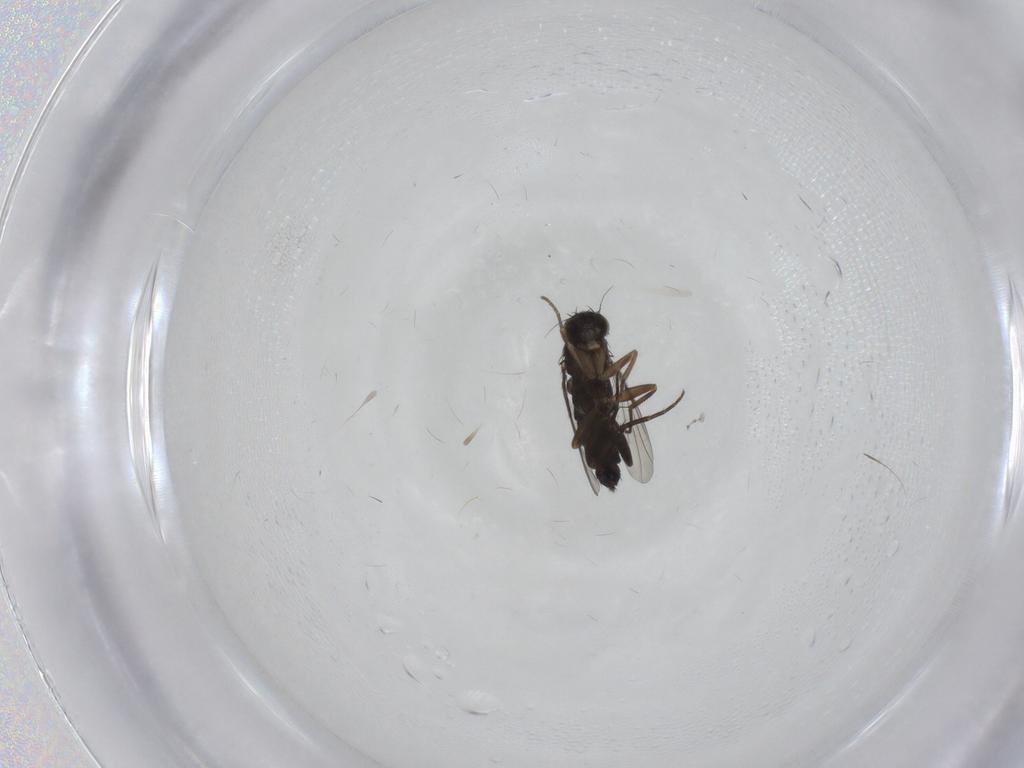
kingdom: Animalia
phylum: Arthropoda
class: Insecta
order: Diptera
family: Phoridae
